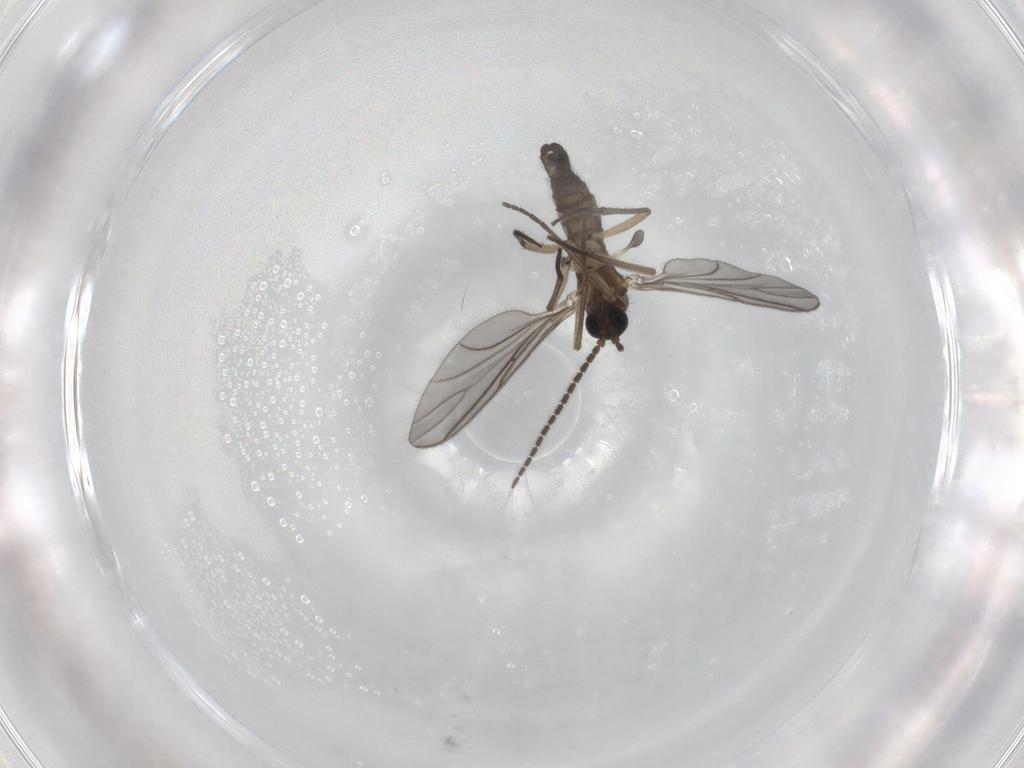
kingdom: Animalia
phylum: Arthropoda
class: Insecta
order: Diptera
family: Sciaridae
